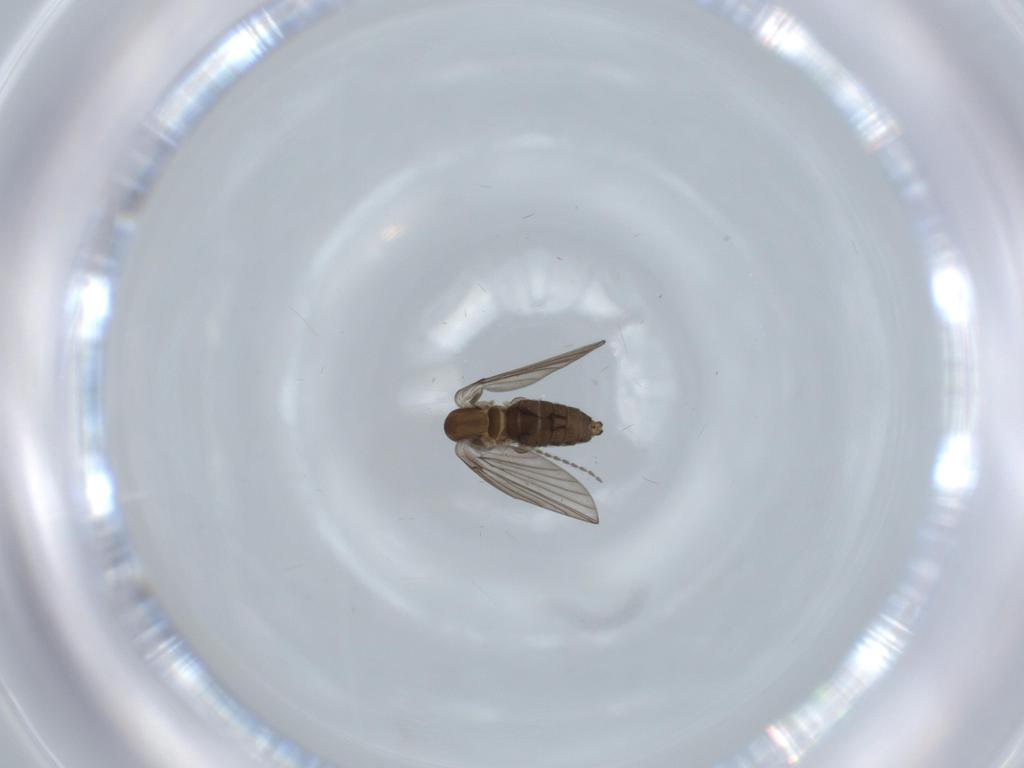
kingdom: Animalia
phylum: Arthropoda
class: Insecta
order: Diptera
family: Psychodidae
